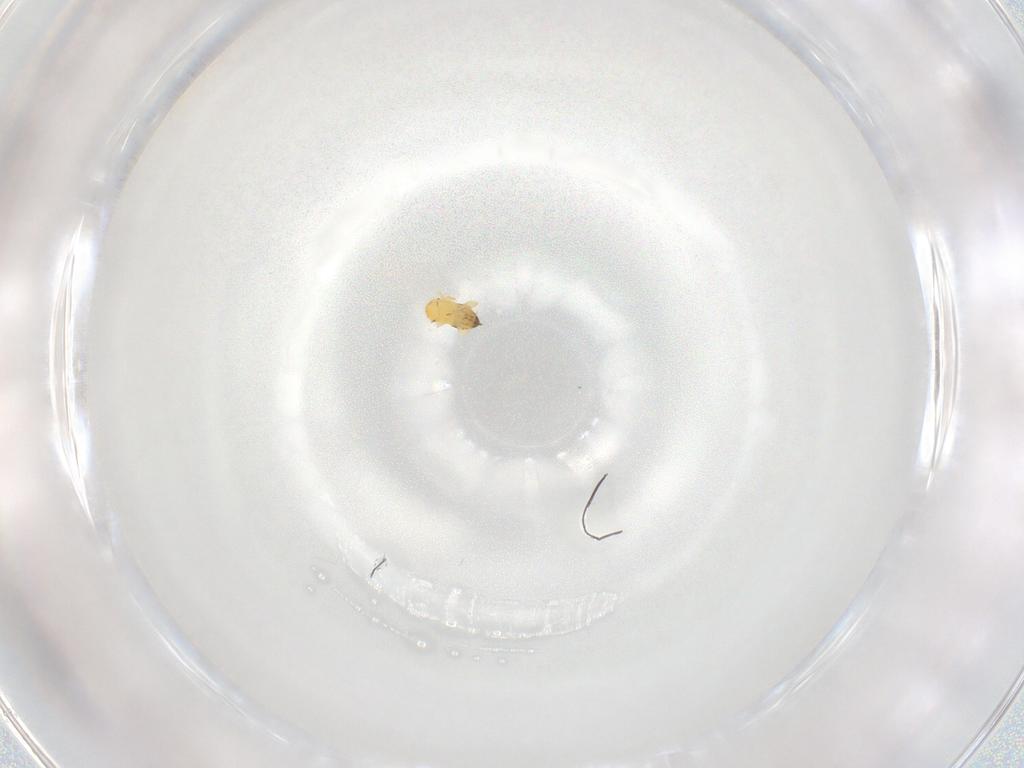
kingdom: Animalia
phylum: Arthropoda
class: Insecta
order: Hymenoptera
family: Trichogrammatidae
